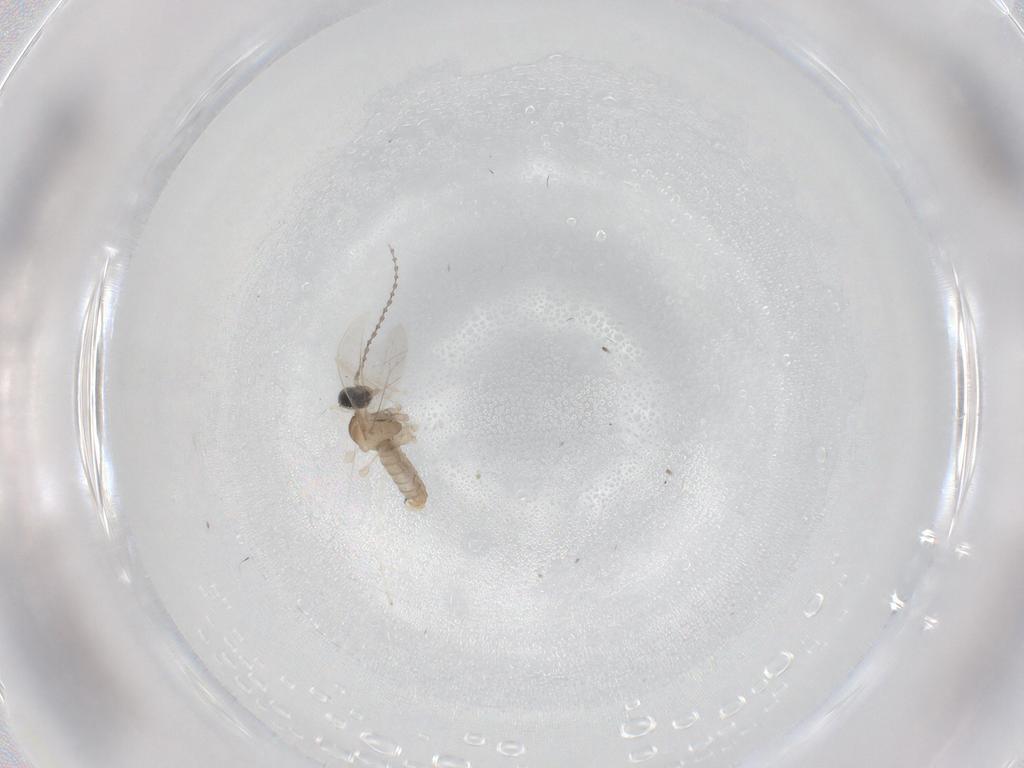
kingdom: Animalia
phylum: Arthropoda
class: Insecta
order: Diptera
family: Cecidomyiidae
